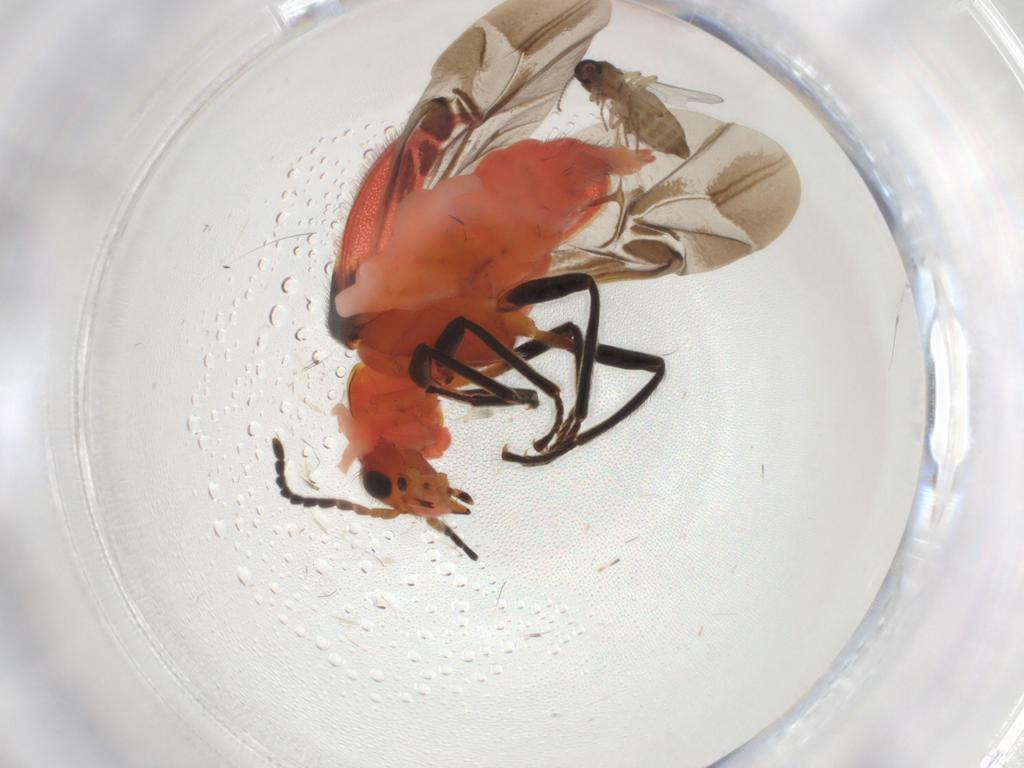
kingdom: Animalia
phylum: Arthropoda
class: Insecta
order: Coleoptera
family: Melyridae
